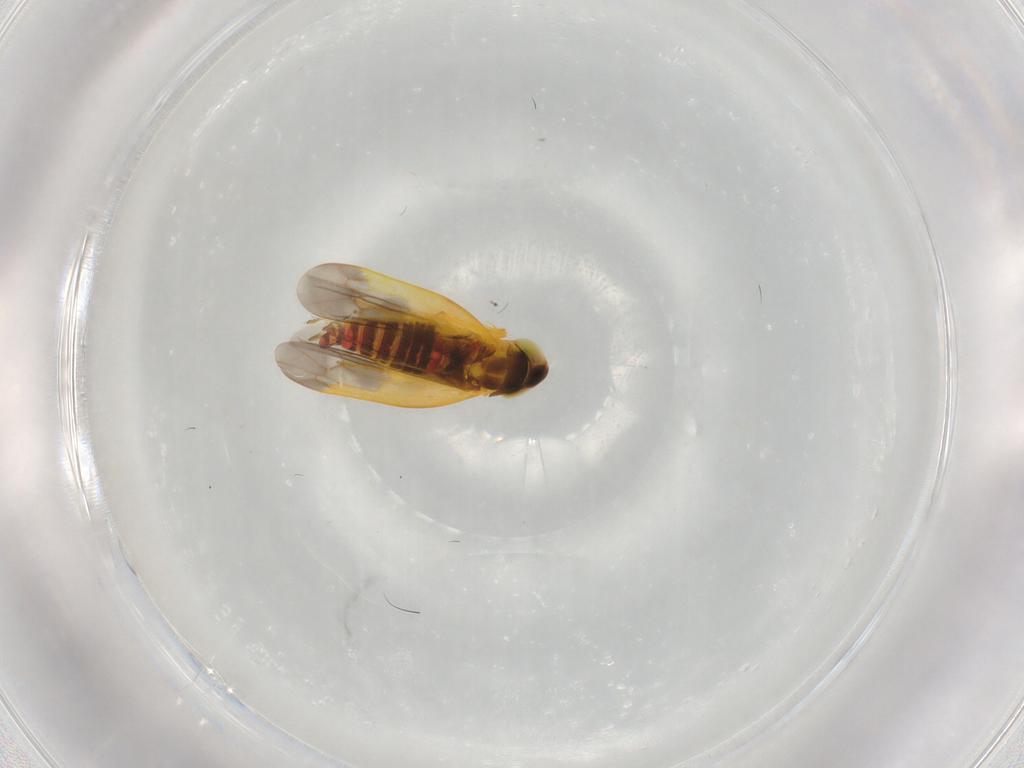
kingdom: Animalia
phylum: Arthropoda
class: Insecta
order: Hemiptera
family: Cicadellidae
